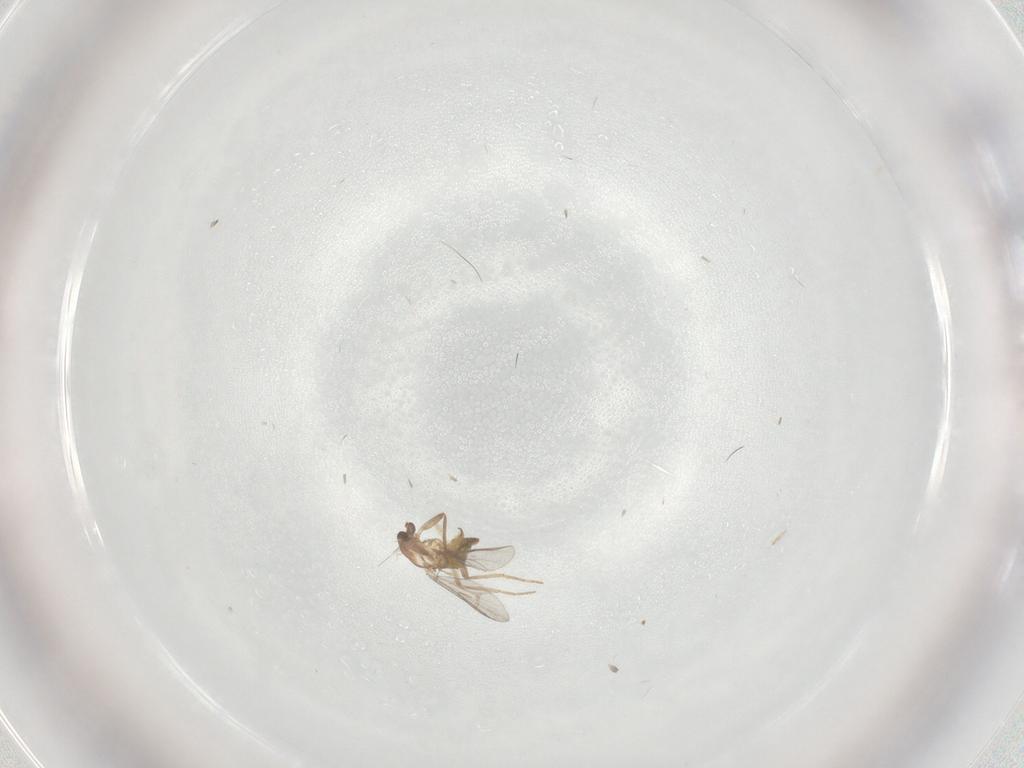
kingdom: Animalia
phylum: Arthropoda
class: Insecta
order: Diptera
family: Chironomidae
